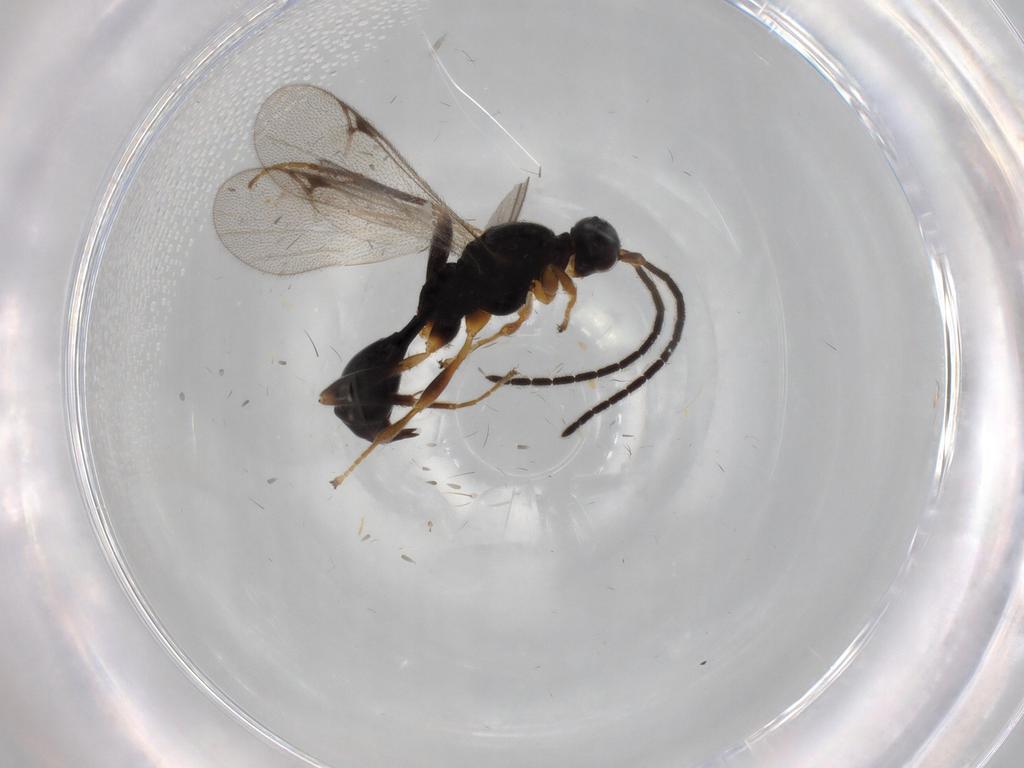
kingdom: Animalia
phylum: Arthropoda
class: Insecta
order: Hymenoptera
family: Proctotrupidae
